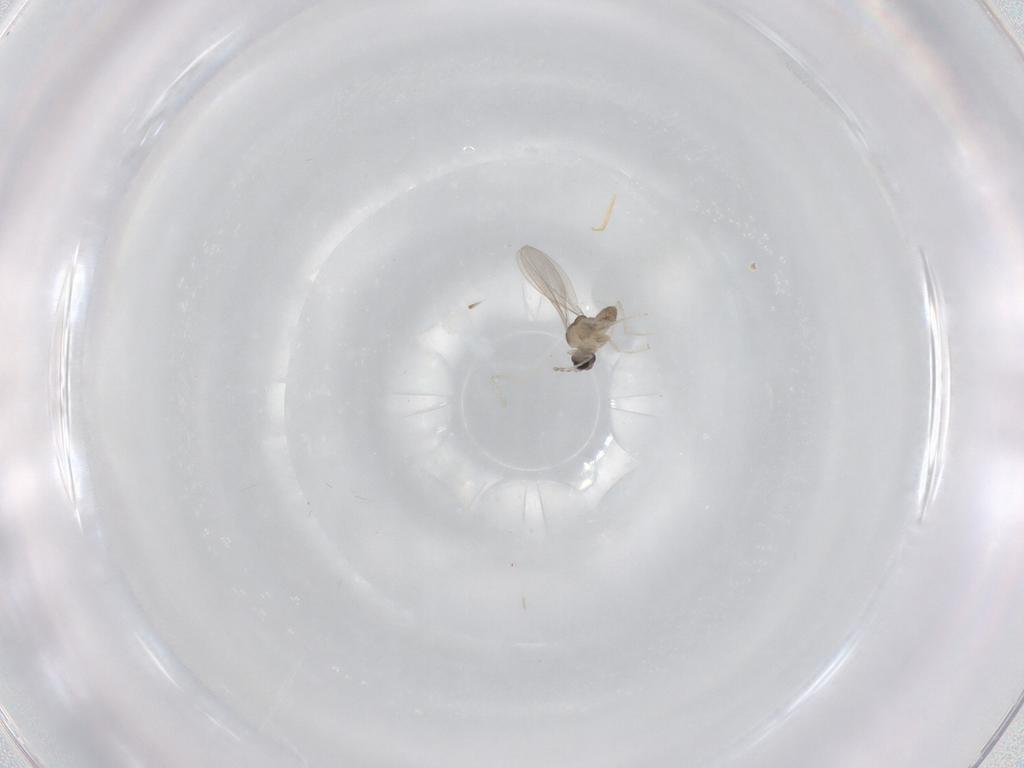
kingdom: Animalia
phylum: Arthropoda
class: Insecta
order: Diptera
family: Cecidomyiidae
